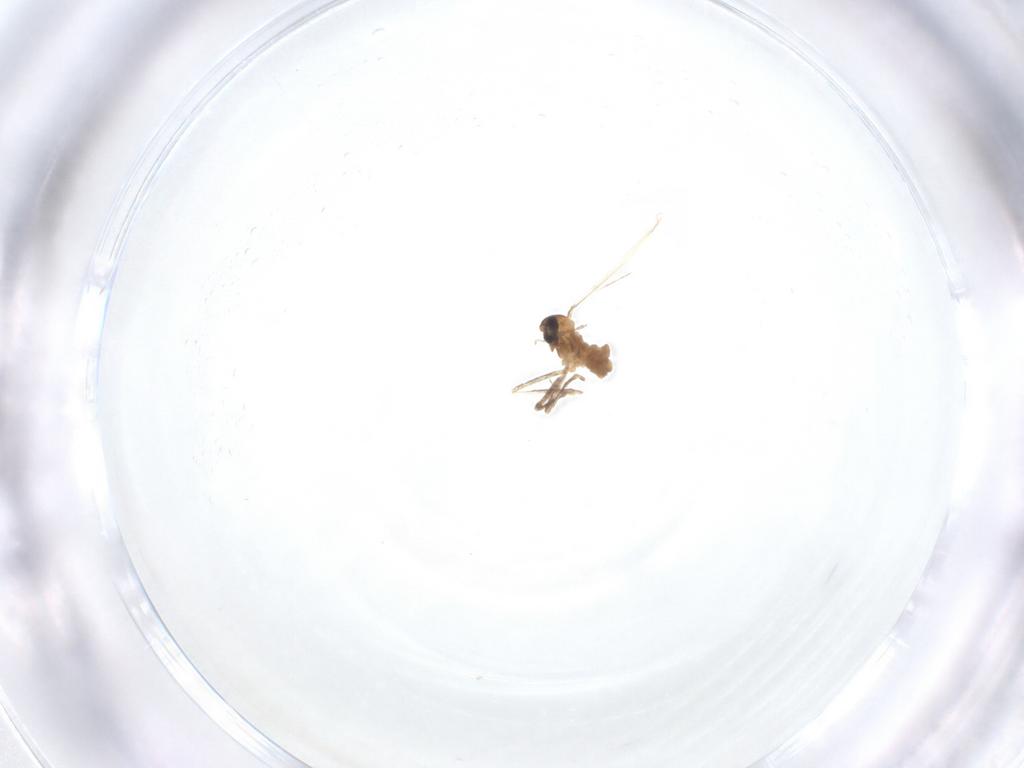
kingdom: Animalia
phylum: Arthropoda
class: Insecta
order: Diptera
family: Cecidomyiidae
